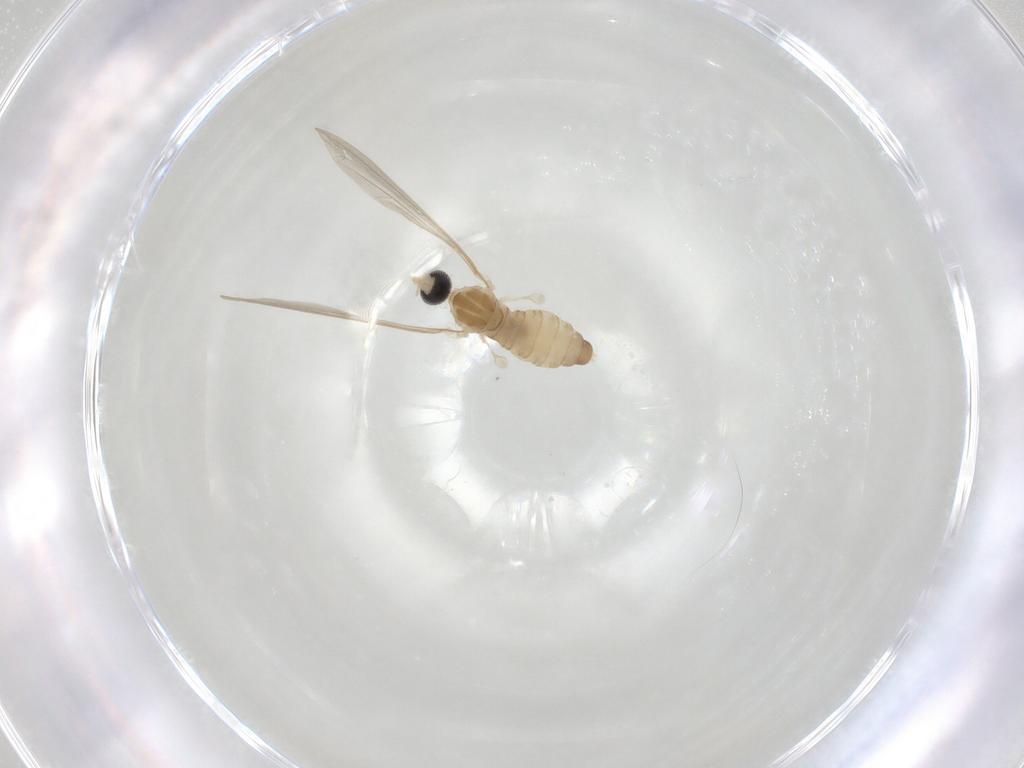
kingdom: Animalia
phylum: Arthropoda
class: Insecta
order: Diptera
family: Cecidomyiidae
